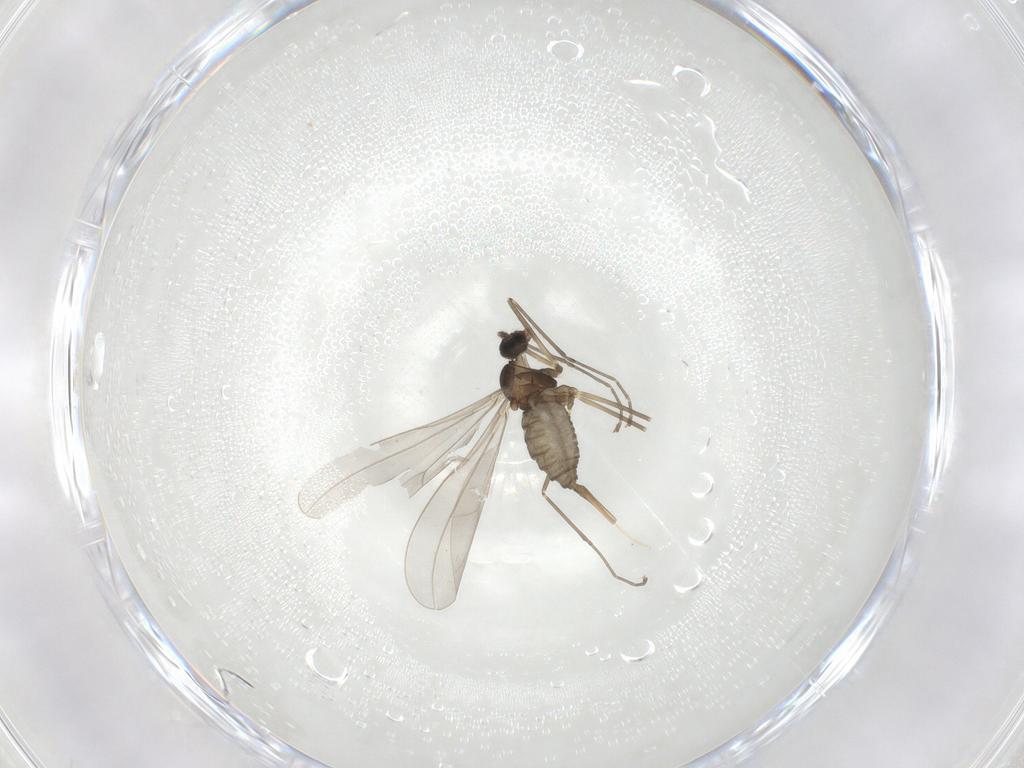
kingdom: Animalia
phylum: Arthropoda
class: Insecta
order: Diptera
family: Cecidomyiidae
